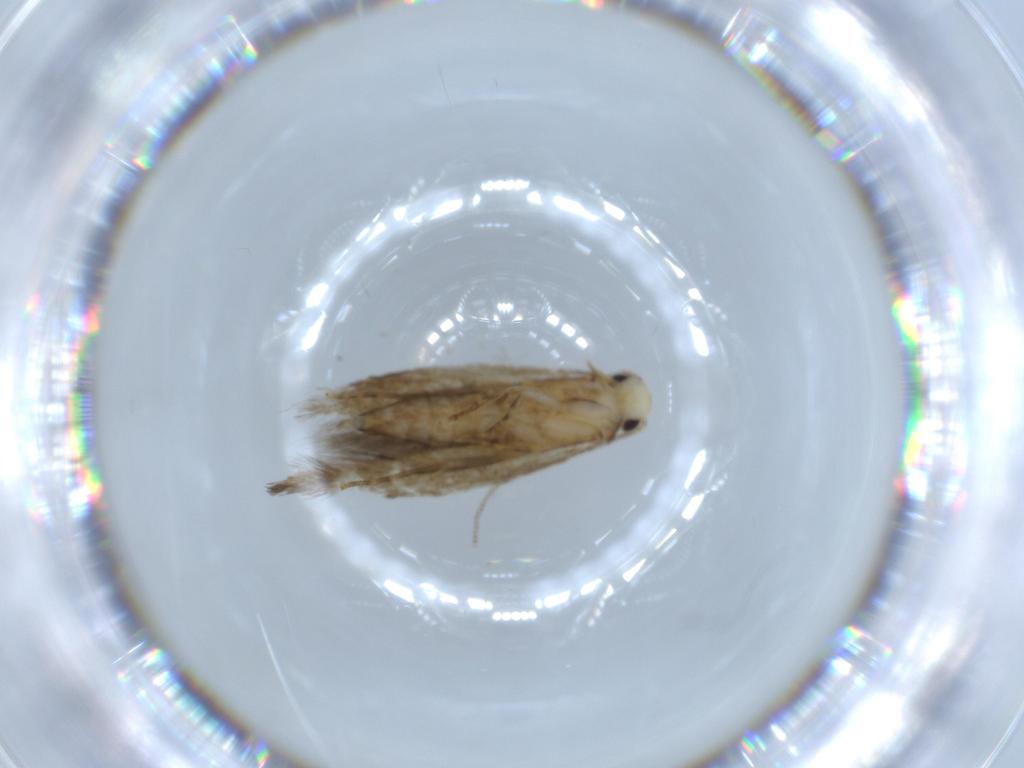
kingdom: Animalia
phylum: Arthropoda
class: Insecta
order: Lepidoptera
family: Tineidae
